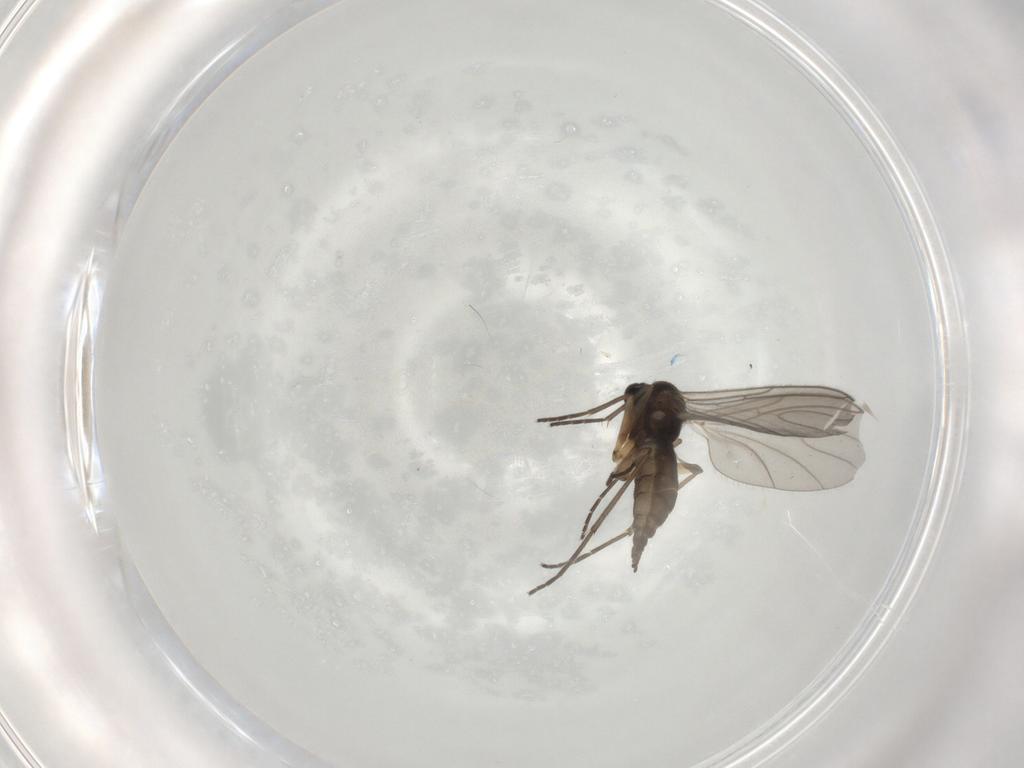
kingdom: Animalia
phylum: Arthropoda
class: Insecta
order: Diptera
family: Sciaridae
